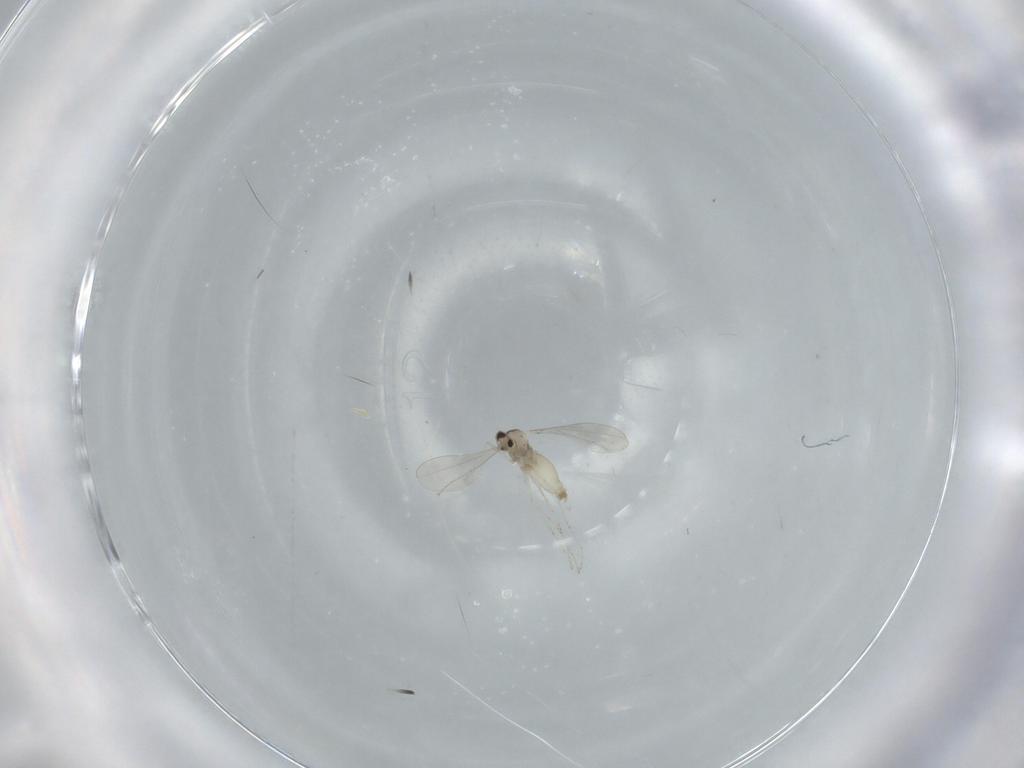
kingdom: Animalia
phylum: Arthropoda
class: Insecta
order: Diptera
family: Cecidomyiidae
